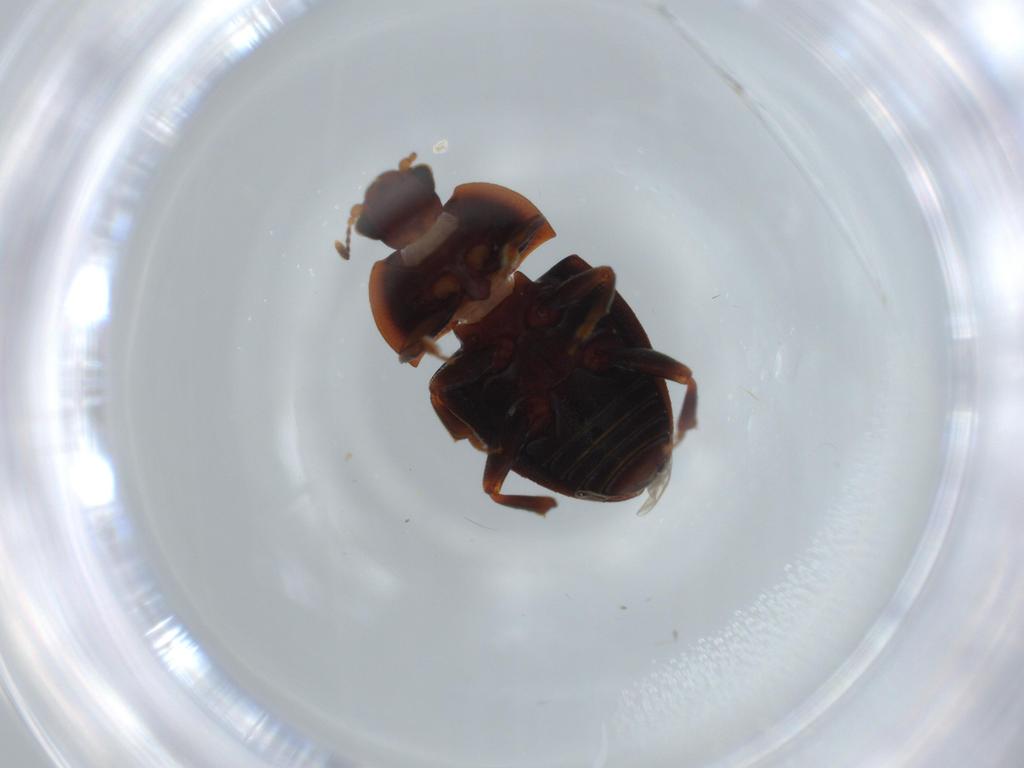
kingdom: Animalia
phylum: Arthropoda
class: Insecta
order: Coleoptera
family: Nitidulidae
